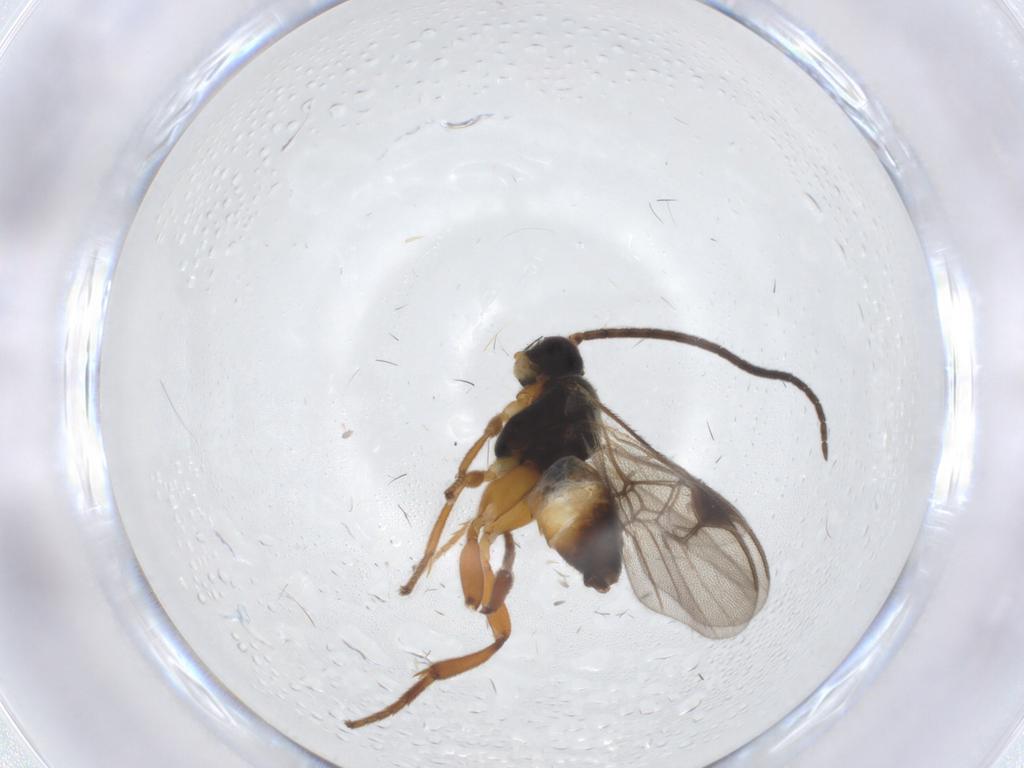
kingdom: Animalia
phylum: Arthropoda
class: Insecta
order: Hymenoptera
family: Braconidae
